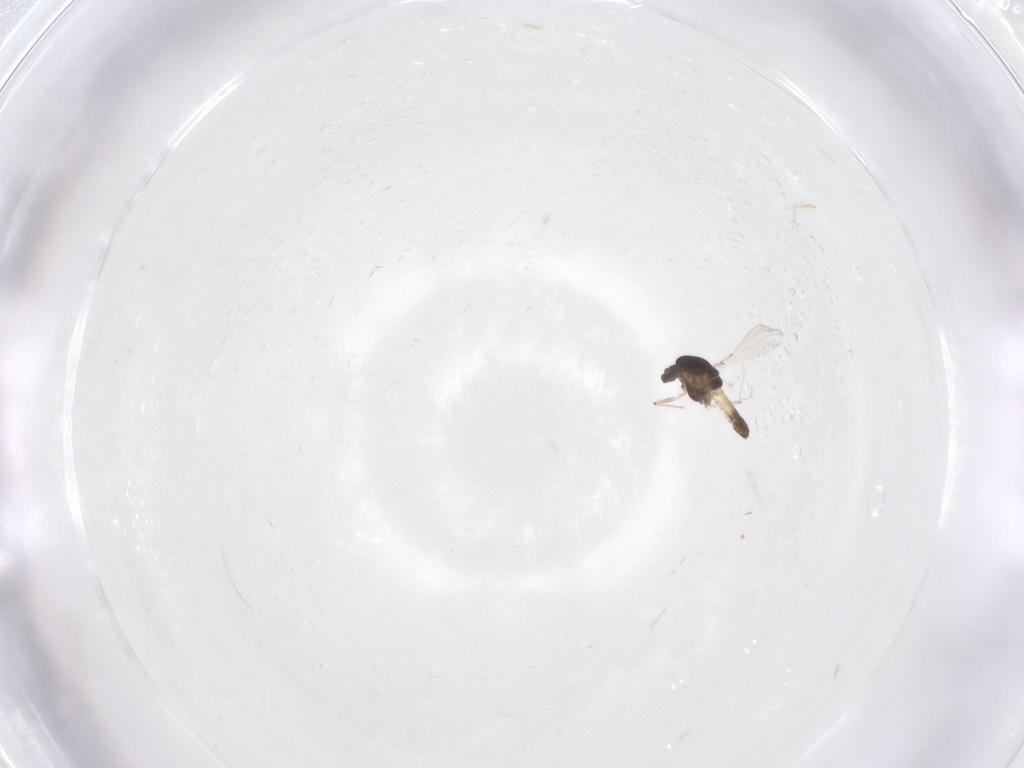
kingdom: Animalia
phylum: Arthropoda
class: Insecta
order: Diptera
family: Chironomidae
